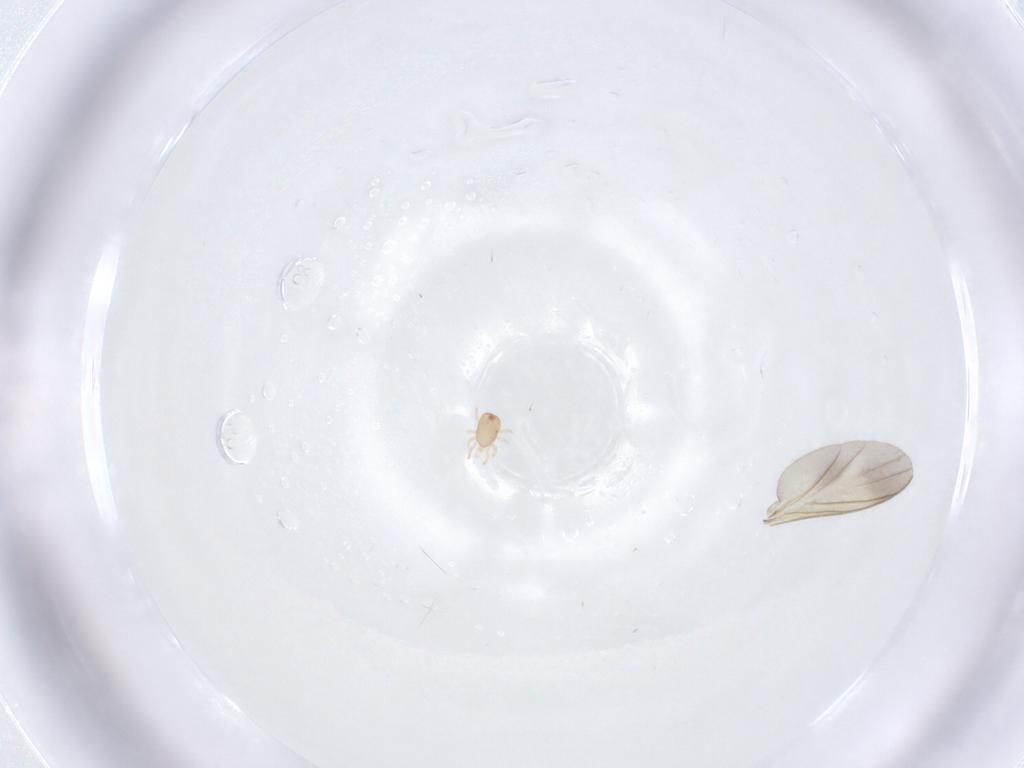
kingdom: Animalia
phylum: Arthropoda
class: Arachnida
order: Mesostigmata
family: Ascidae
